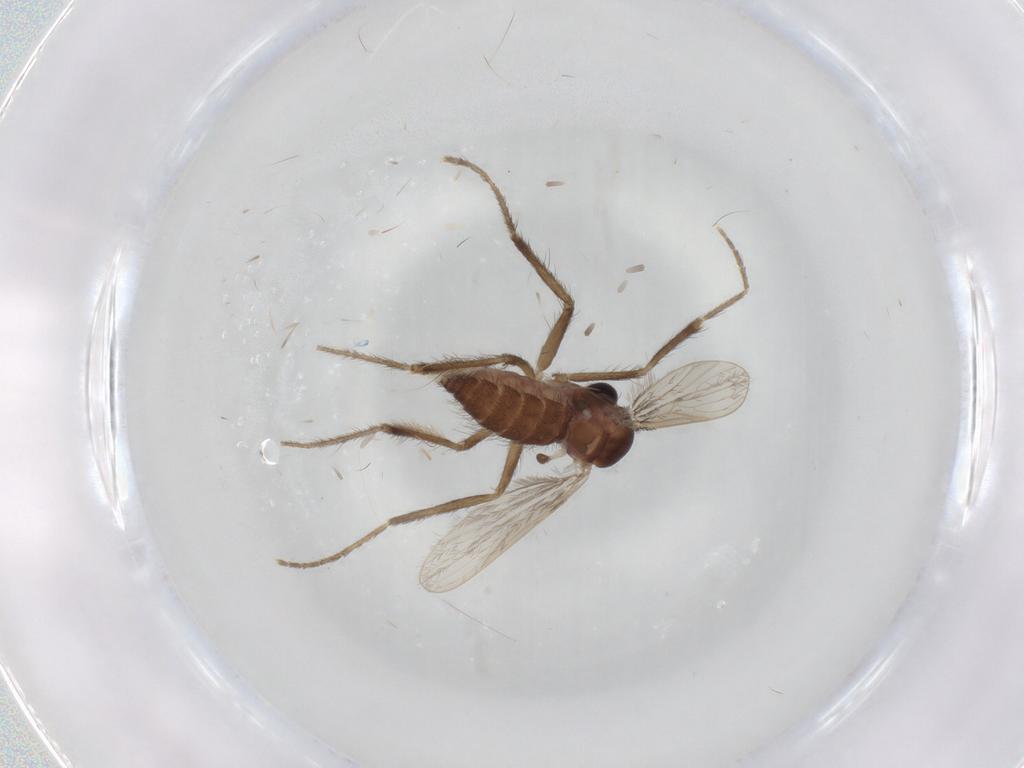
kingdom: Animalia
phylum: Arthropoda
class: Insecta
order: Diptera
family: Corethrellidae
